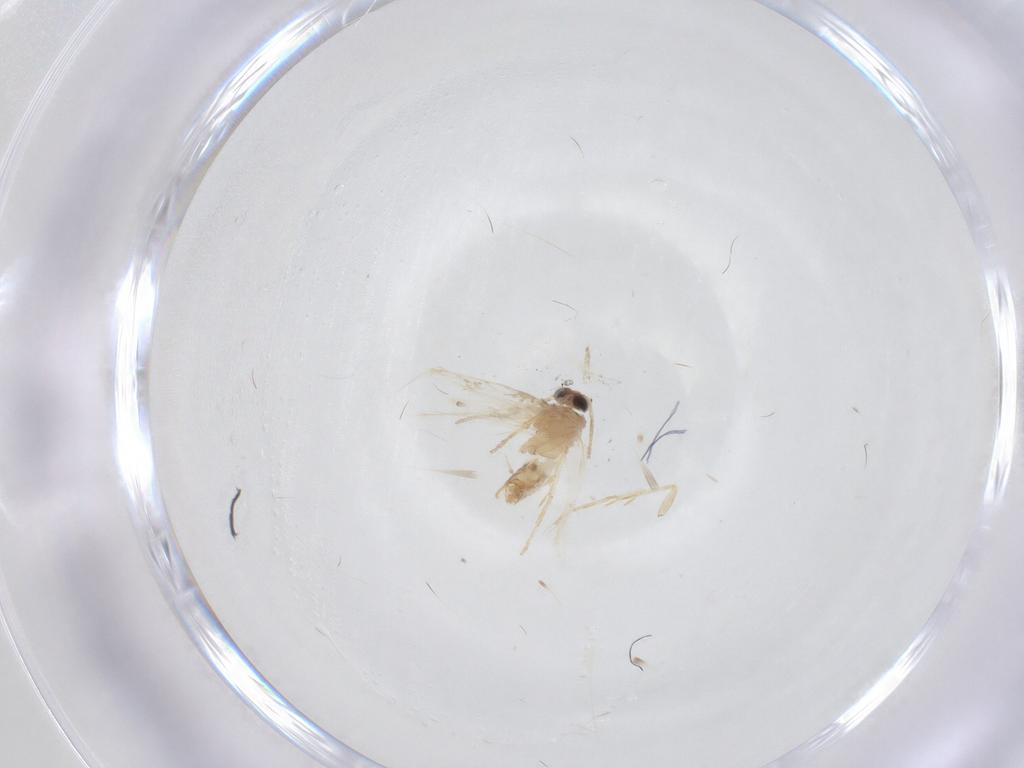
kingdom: Animalia
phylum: Arthropoda
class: Insecta
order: Lepidoptera
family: Nepticulidae
